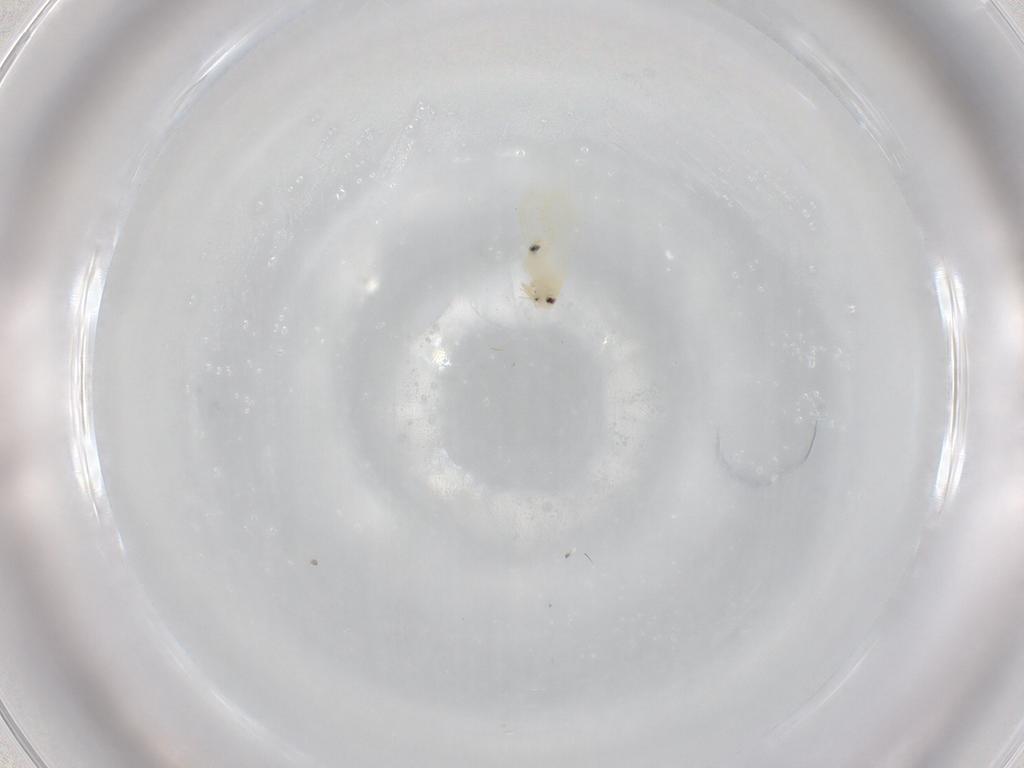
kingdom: Animalia
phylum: Arthropoda
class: Insecta
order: Hemiptera
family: Aleyrodidae
